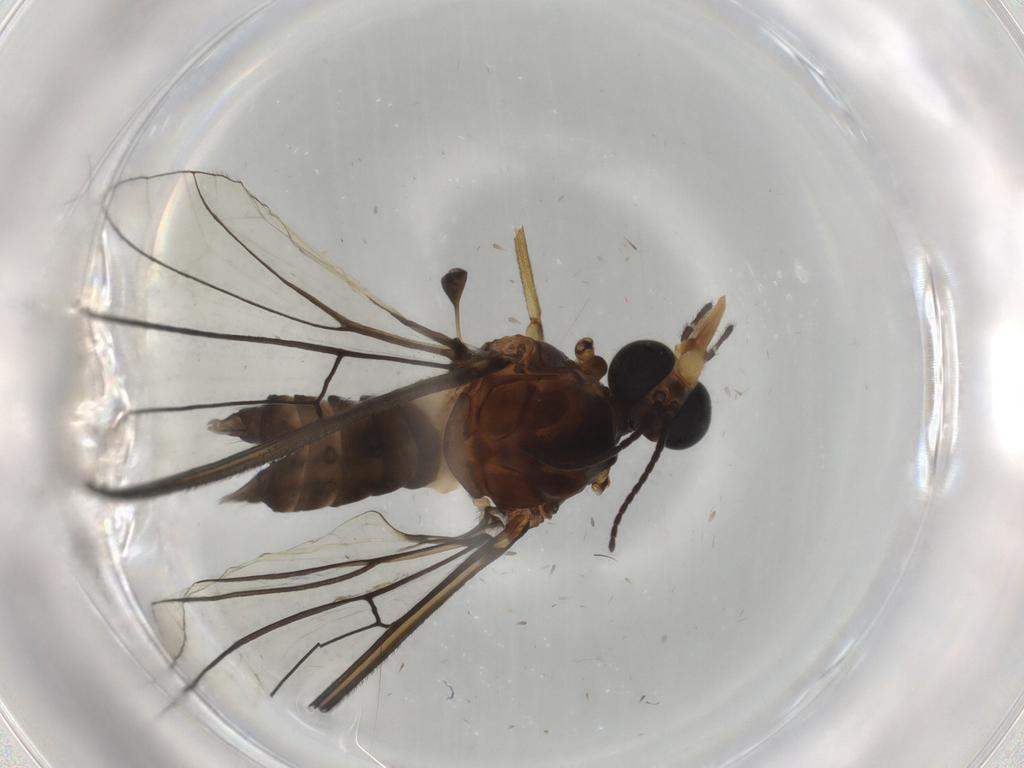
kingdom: Animalia
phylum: Arthropoda
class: Insecta
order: Diptera
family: Blephariceridae
